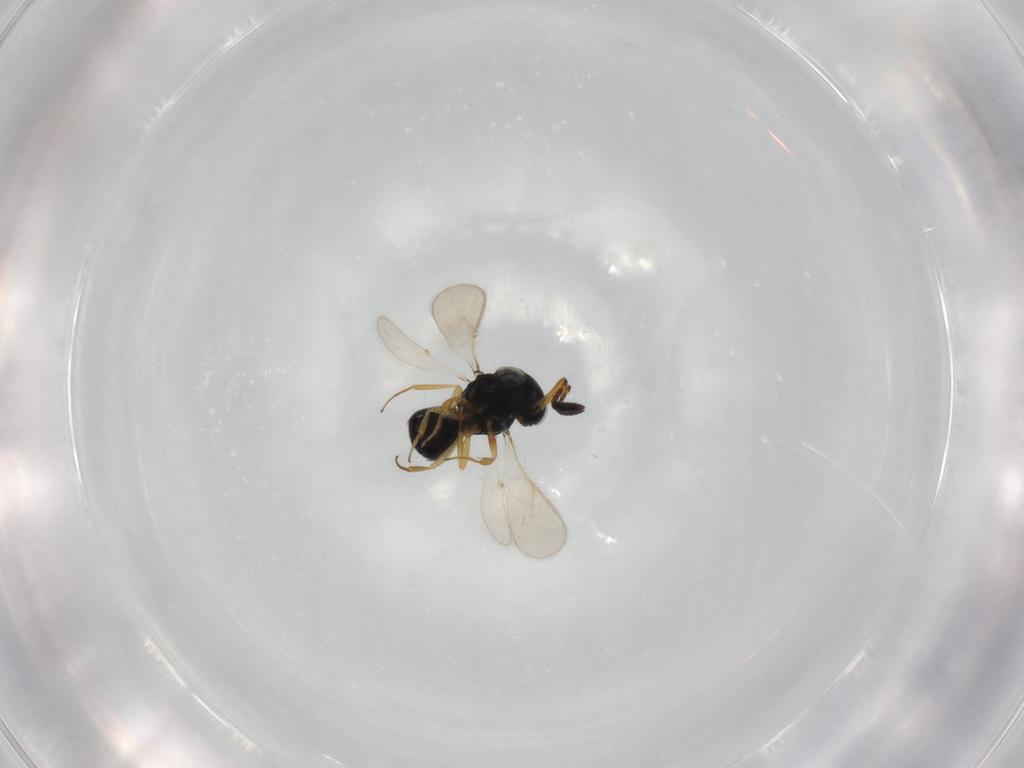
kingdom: Animalia
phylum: Arthropoda
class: Insecta
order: Hymenoptera
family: Scelionidae
